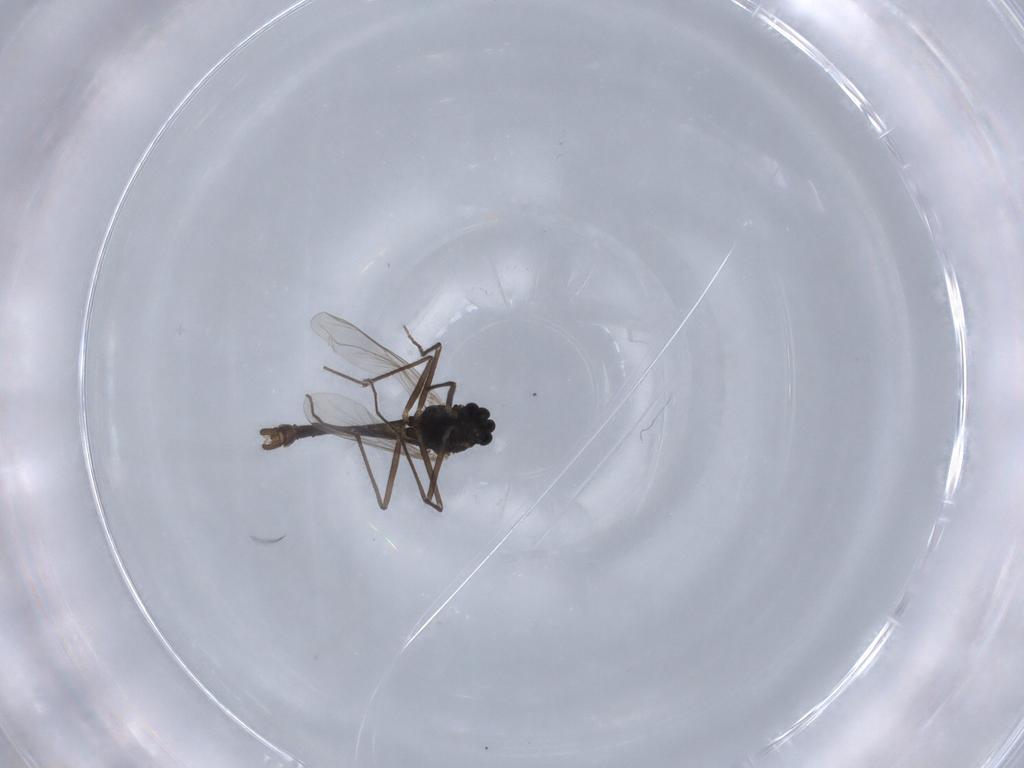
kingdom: Animalia
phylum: Arthropoda
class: Insecta
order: Diptera
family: Chironomidae
